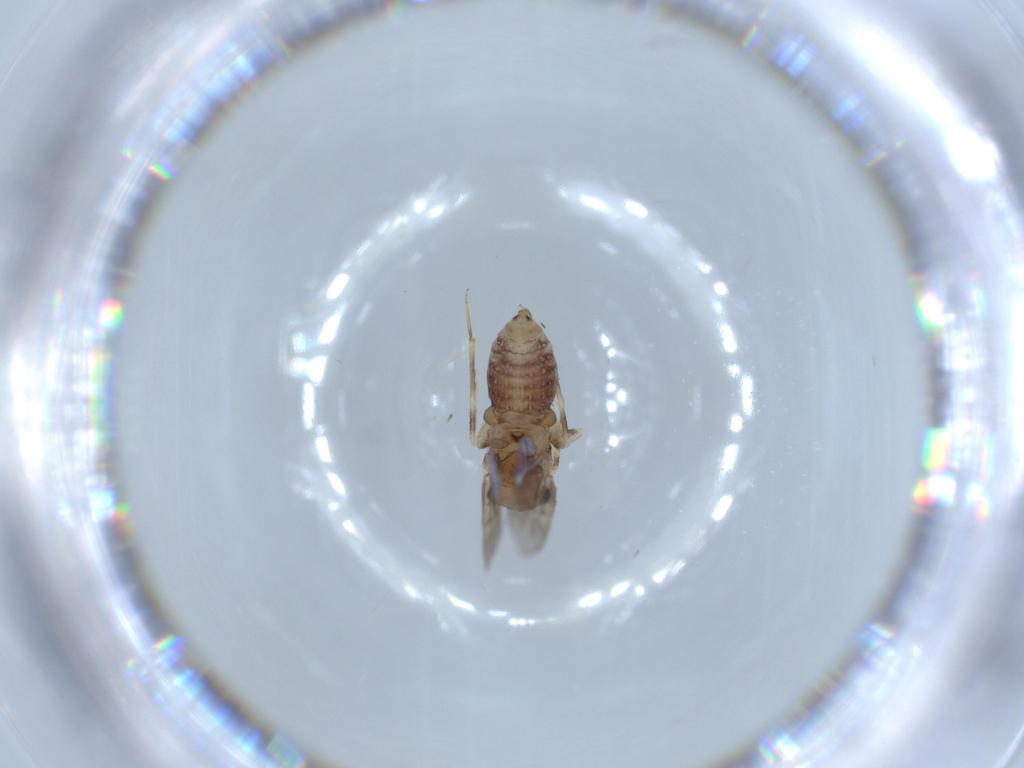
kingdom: Animalia
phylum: Arthropoda
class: Insecta
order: Psocodea
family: Lepidopsocidae
